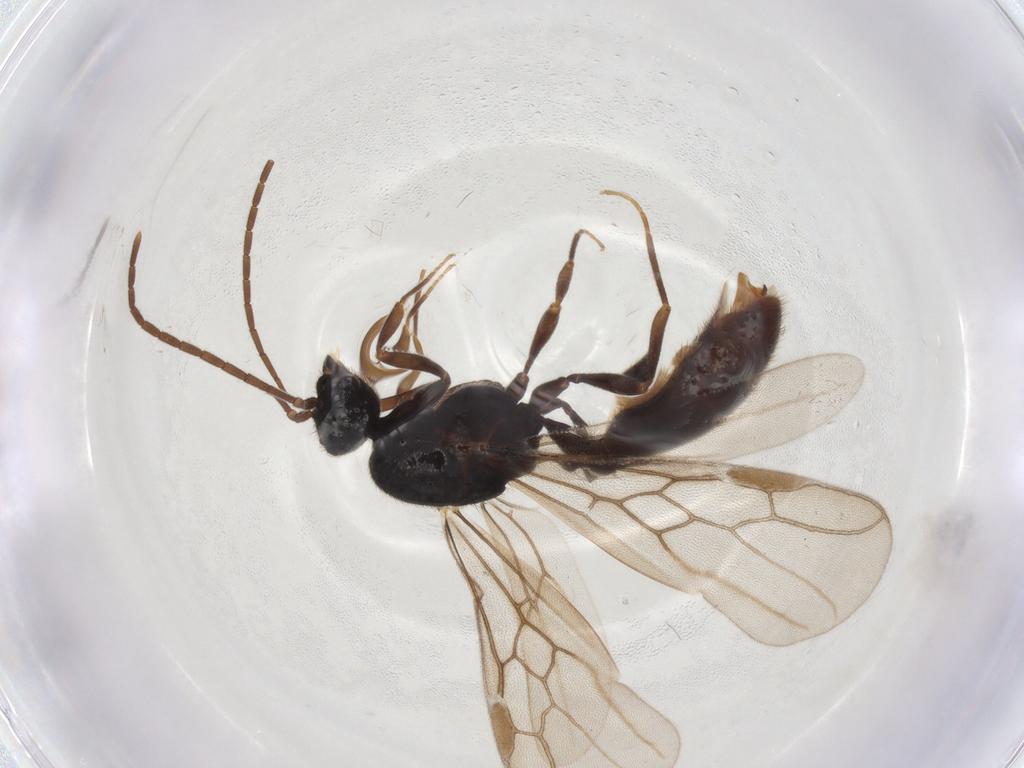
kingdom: Animalia
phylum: Arthropoda
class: Insecta
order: Hymenoptera
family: Formicidae
